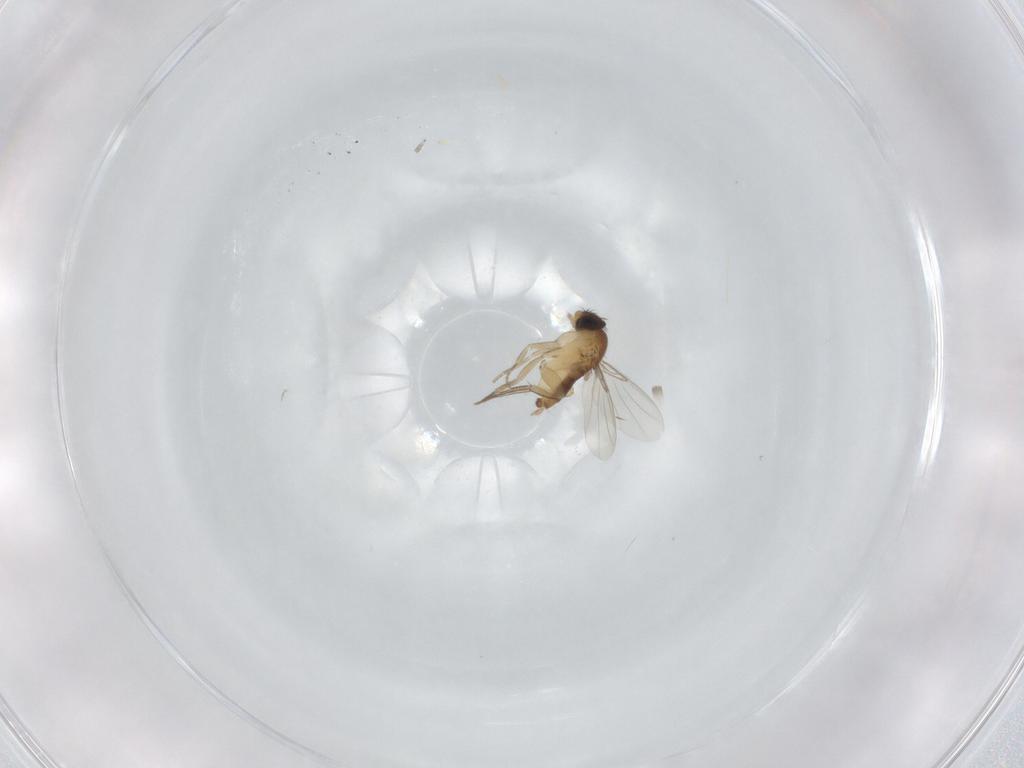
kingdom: Animalia
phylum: Arthropoda
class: Insecta
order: Diptera
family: Phoridae
